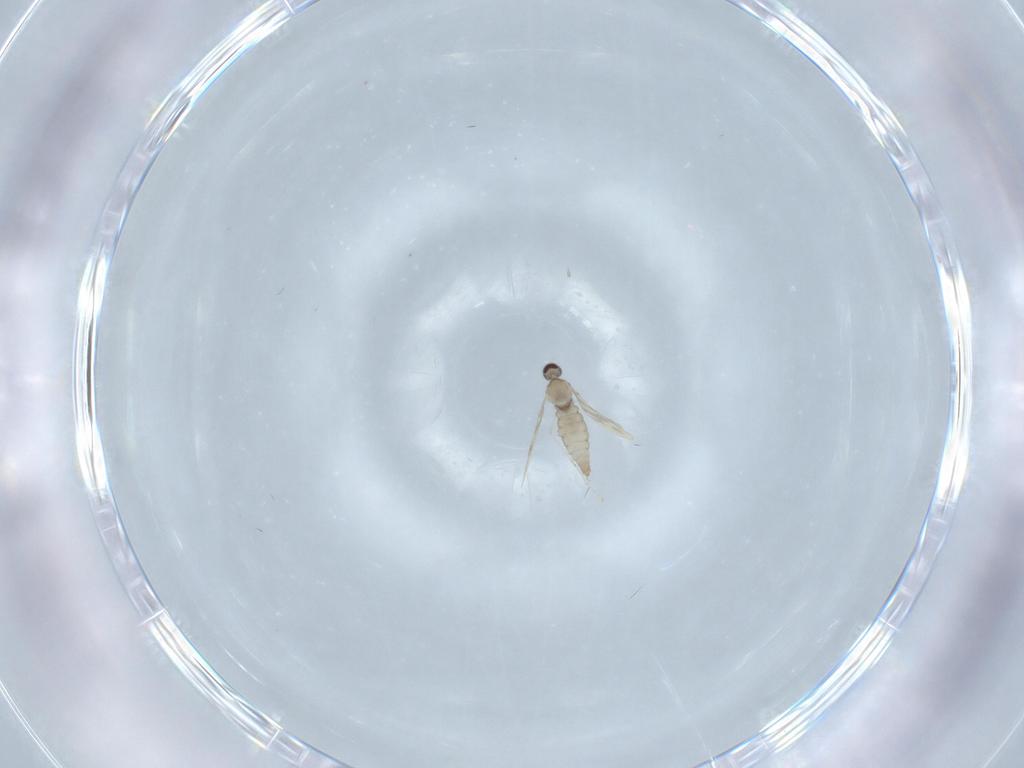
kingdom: Animalia
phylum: Arthropoda
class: Insecta
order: Diptera
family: Cecidomyiidae
